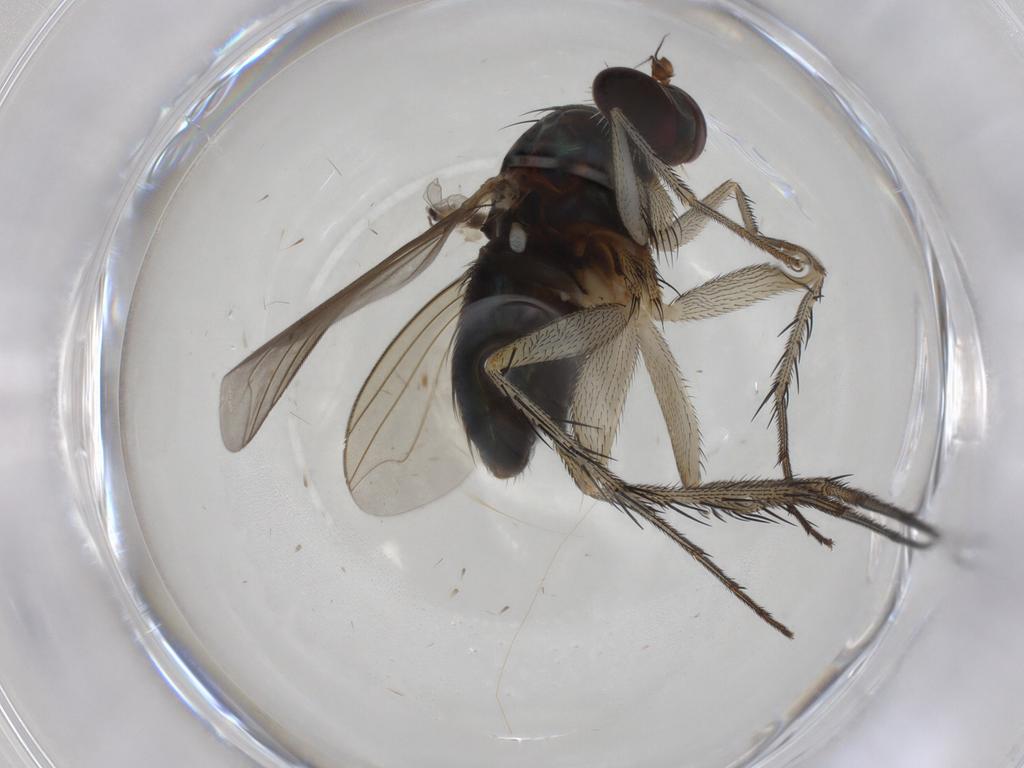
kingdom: Animalia
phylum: Arthropoda
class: Insecta
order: Diptera
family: Dolichopodidae
